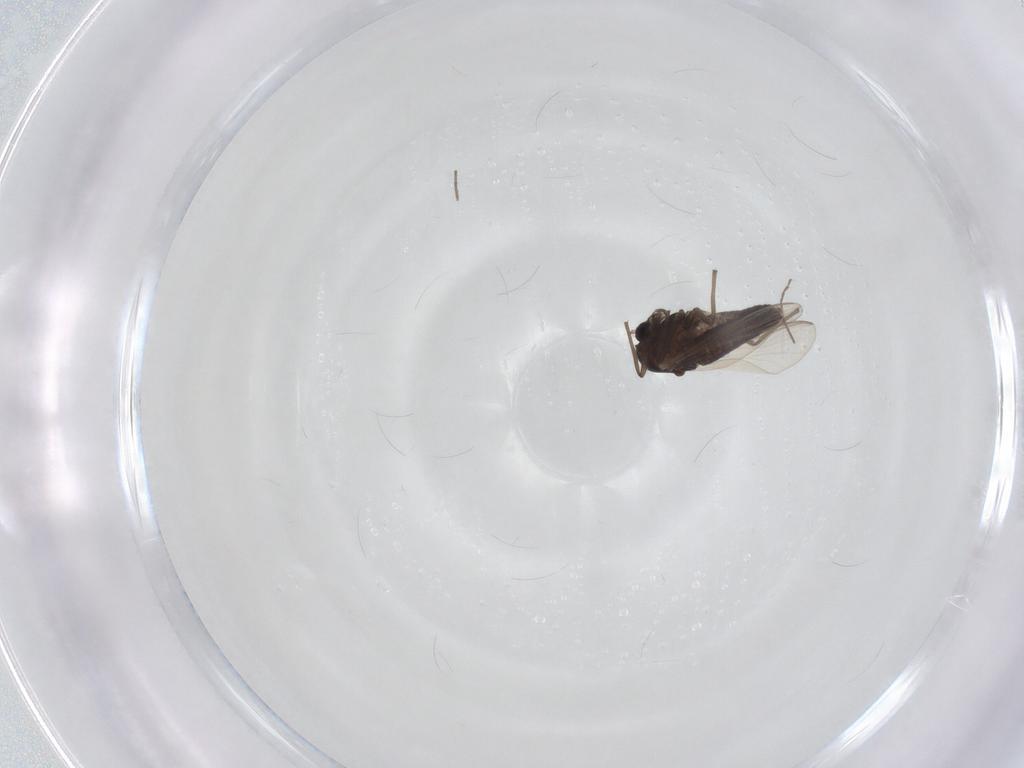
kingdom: Animalia
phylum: Arthropoda
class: Insecta
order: Diptera
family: Chironomidae
